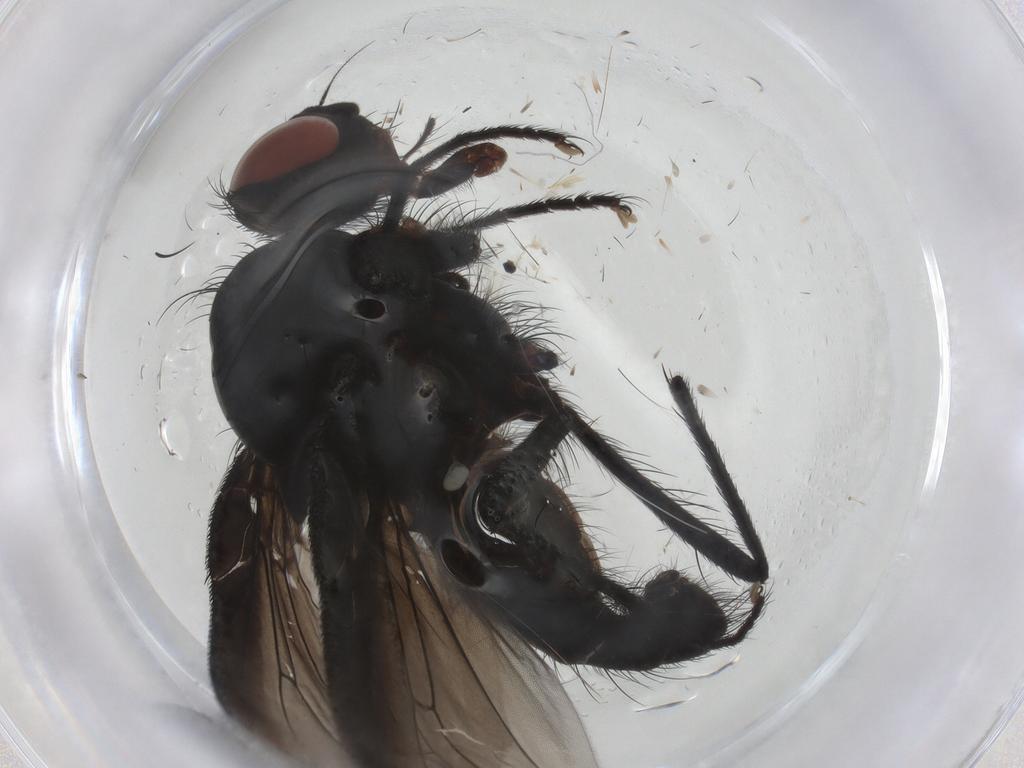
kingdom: Animalia
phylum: Arthropoda
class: Insecta
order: Diptera
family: Anthomyiidae
